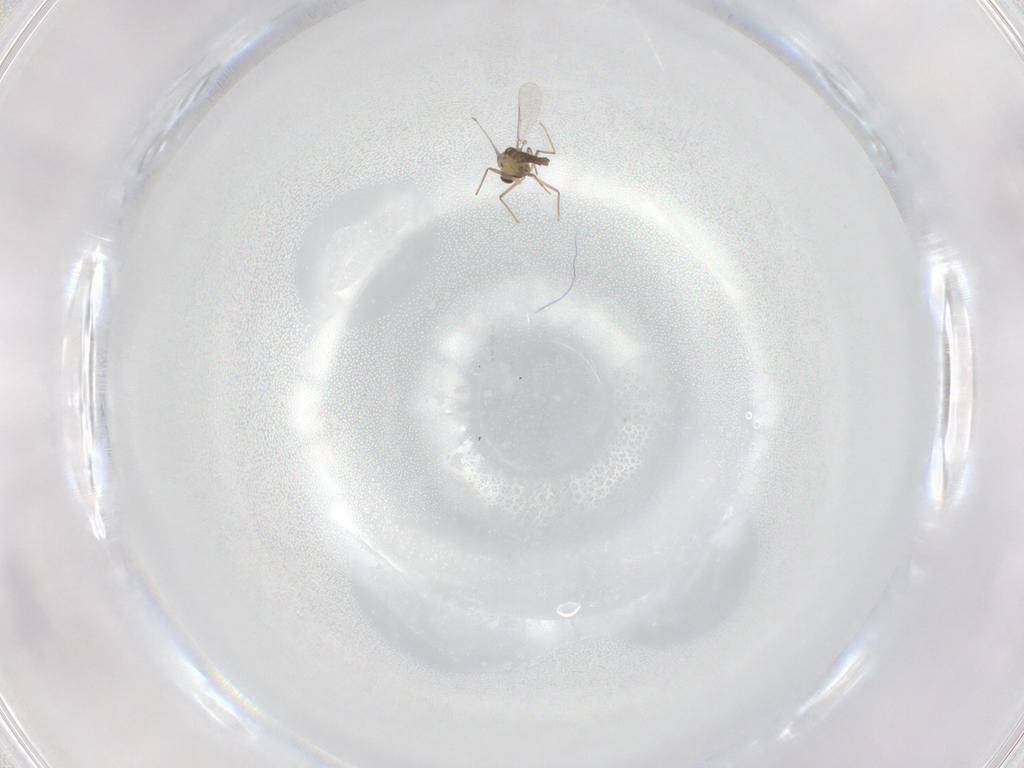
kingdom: Animalia
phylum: Arthropoda
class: Insecta
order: Diptera
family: Chironomidae
